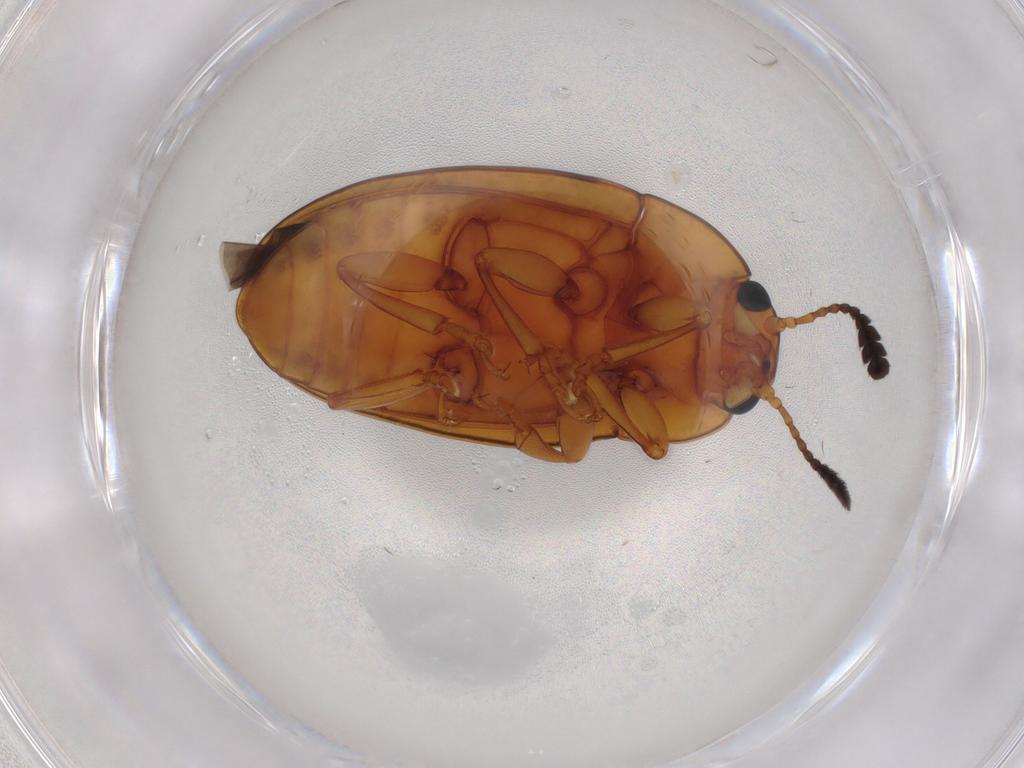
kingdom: Animalia
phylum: Arthropoda
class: Insecta
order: Coleoptera
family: Erotylidae
